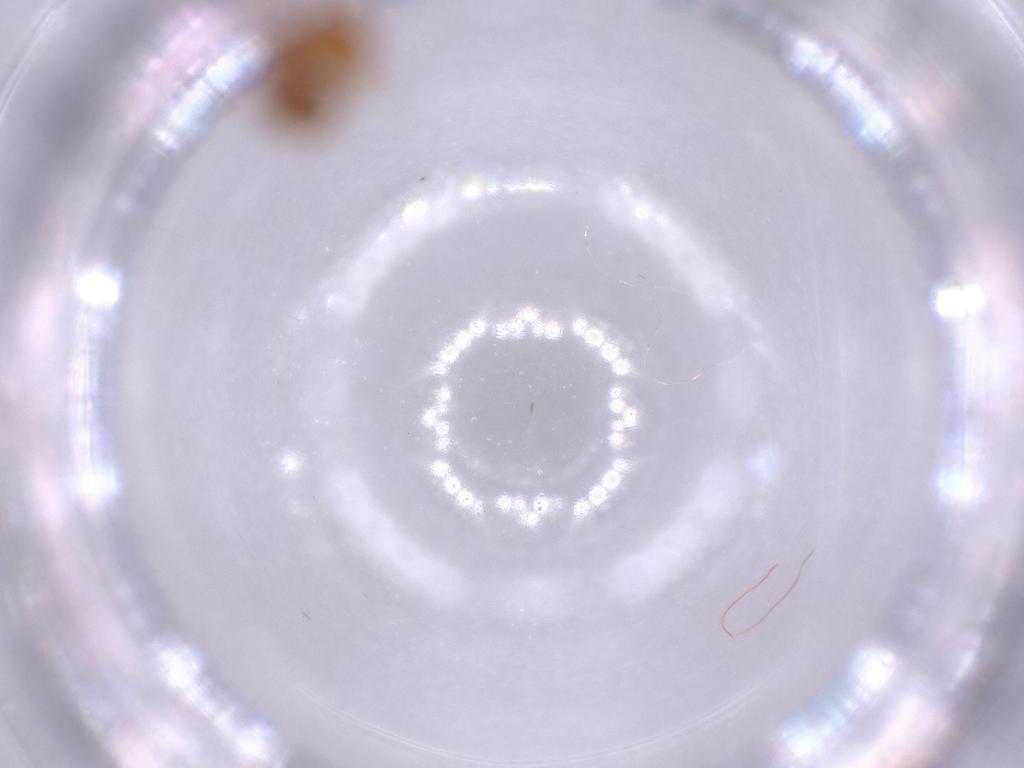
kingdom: Animalia
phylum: Arthropoda
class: Insecta
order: Hymenoptera
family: Formicidae
